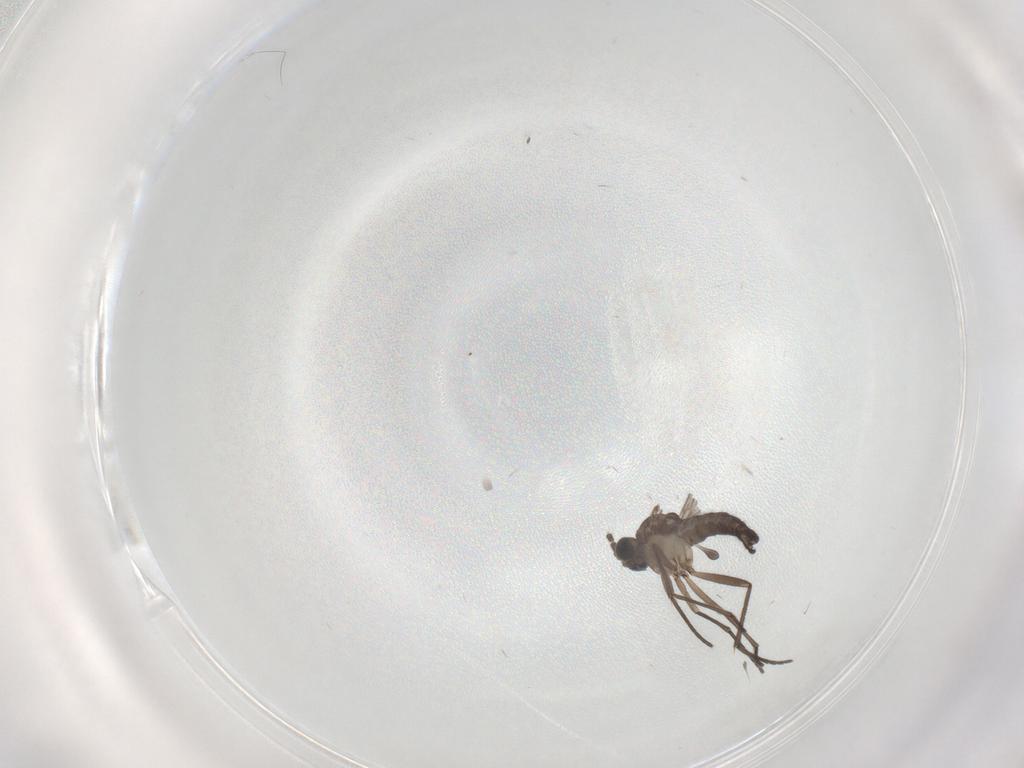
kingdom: Animalia
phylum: Arthropoda
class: Insecta
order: Diptera
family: Sciaridae
